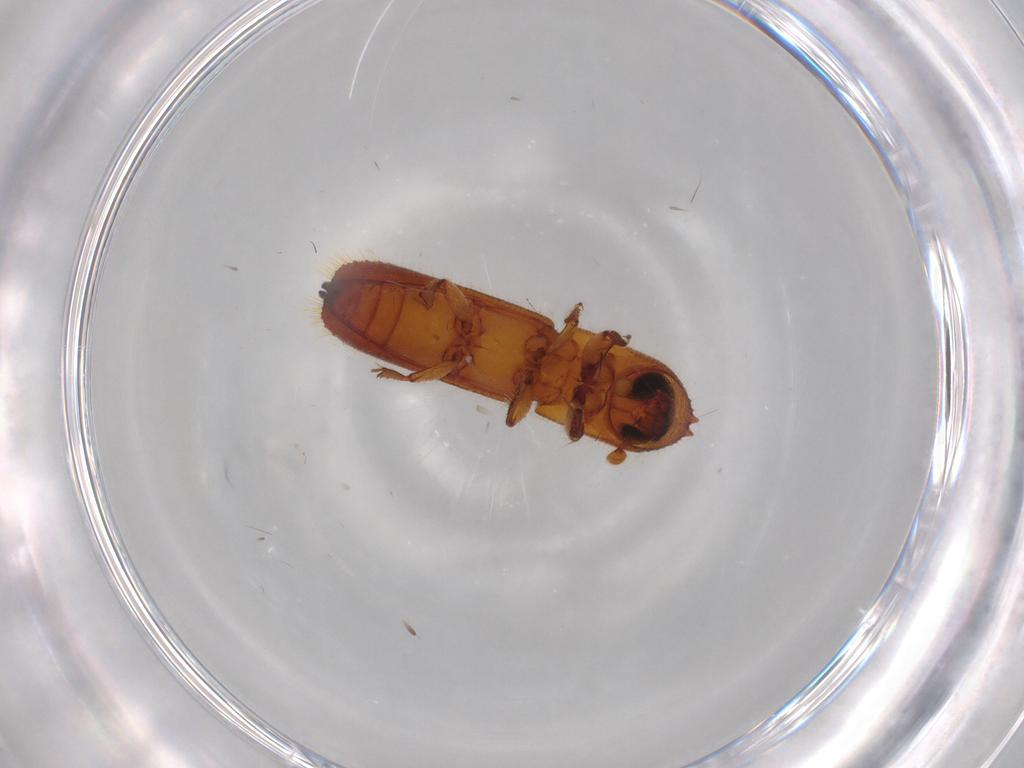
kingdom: Animalia
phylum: Arthropoda
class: Insecta
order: Coleoptera
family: Curculionidae
